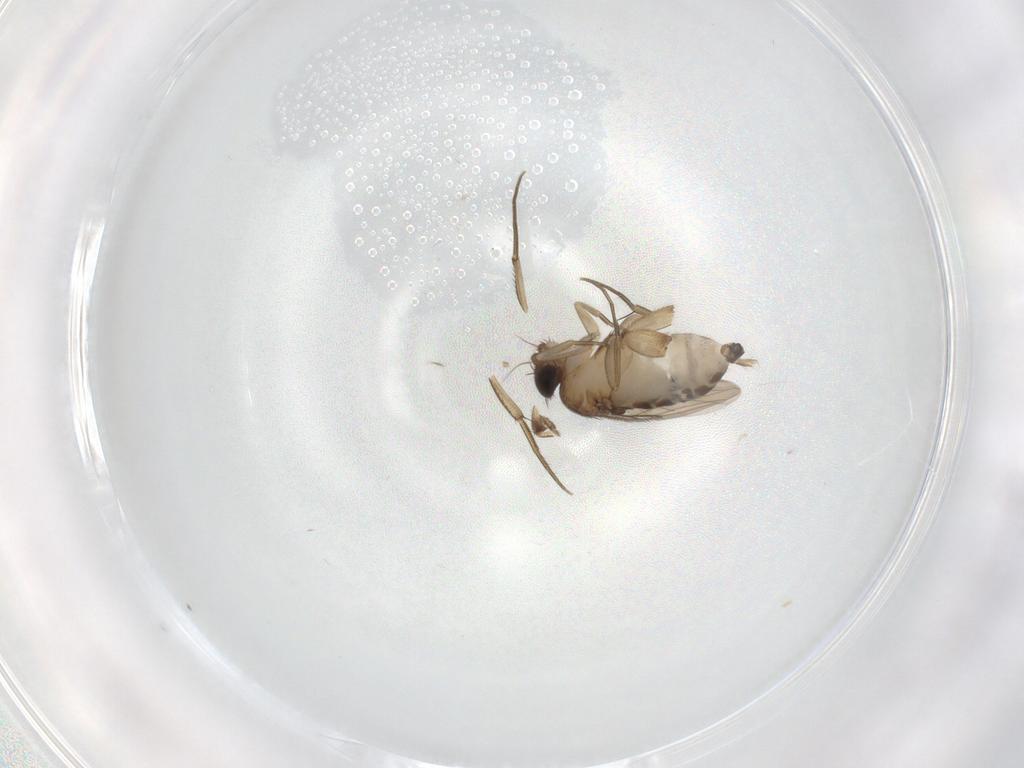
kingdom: Animalia
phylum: Arthropoda
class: Insecta
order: Diptera
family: Phoridae
